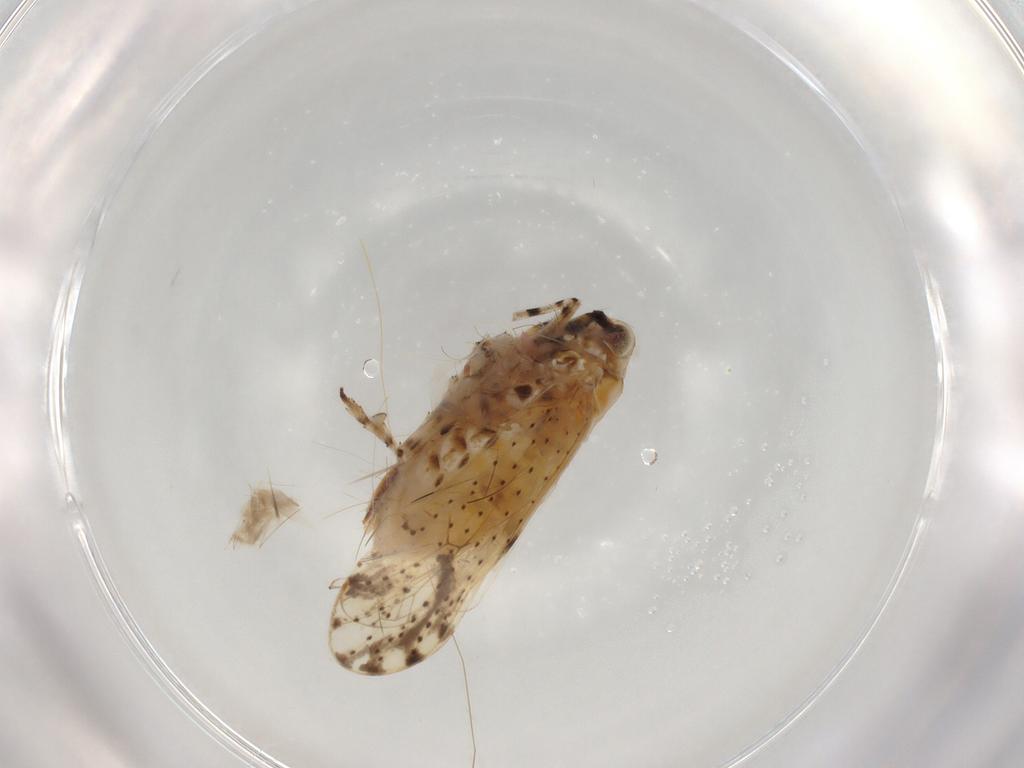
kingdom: Animalia
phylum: Arthropoda
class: Insecta
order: Hemiptera
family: Delphacidae
